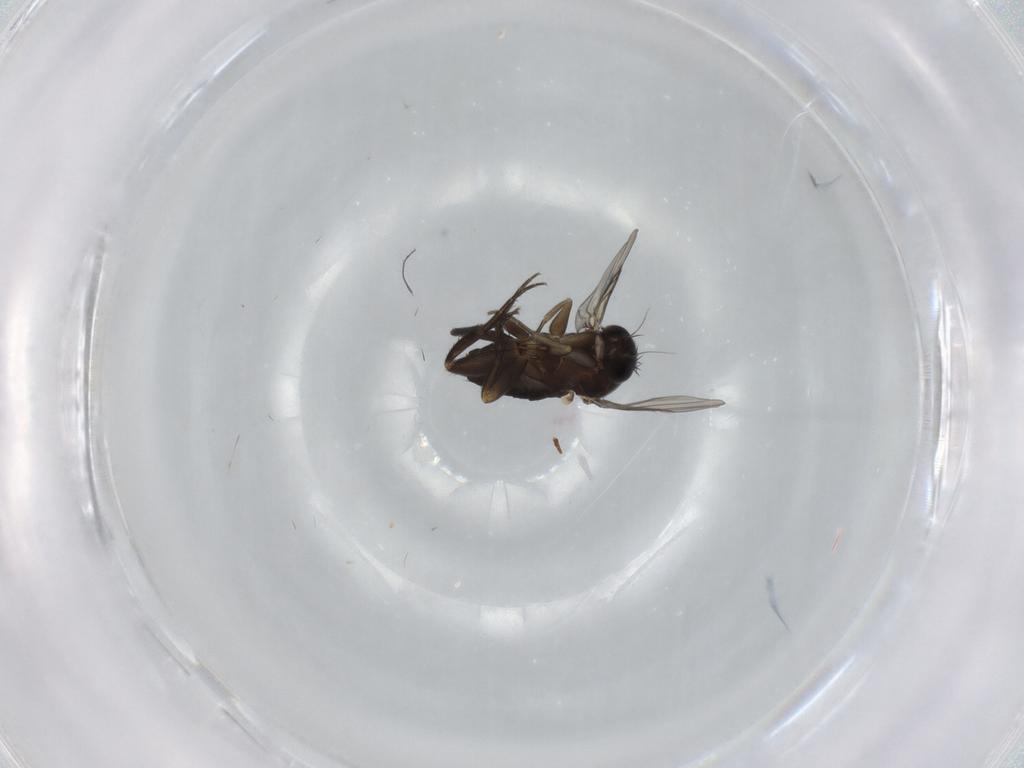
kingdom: Animalia
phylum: Arthropoda
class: Insecta
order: Diptera
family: Phoridae
